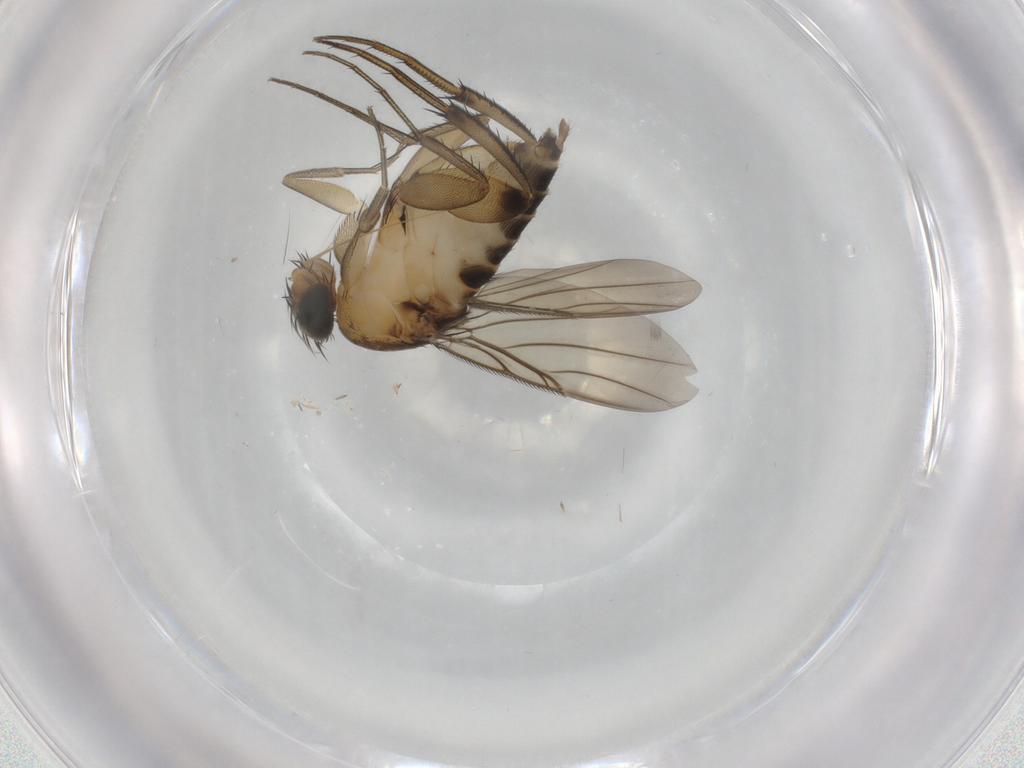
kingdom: Animalia
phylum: Arthropoda
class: Insecta
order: Diptera
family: Phoridae
